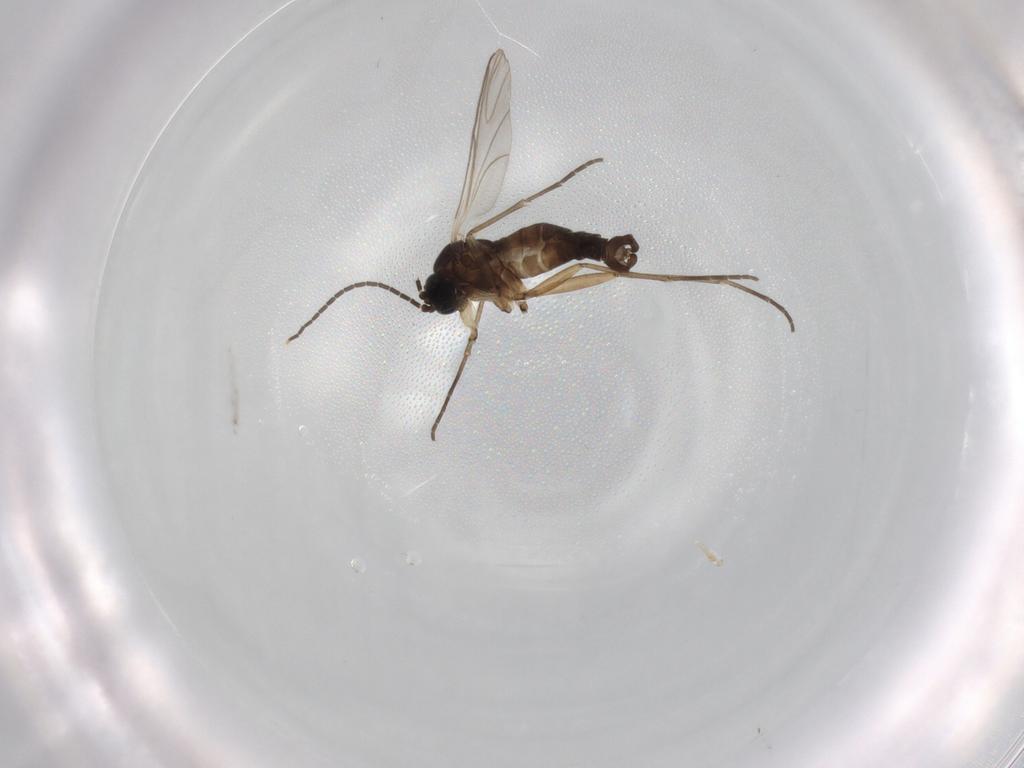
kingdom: Animalia
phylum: Arthropoda
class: Insecta
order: Diptera
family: Sciaridae
